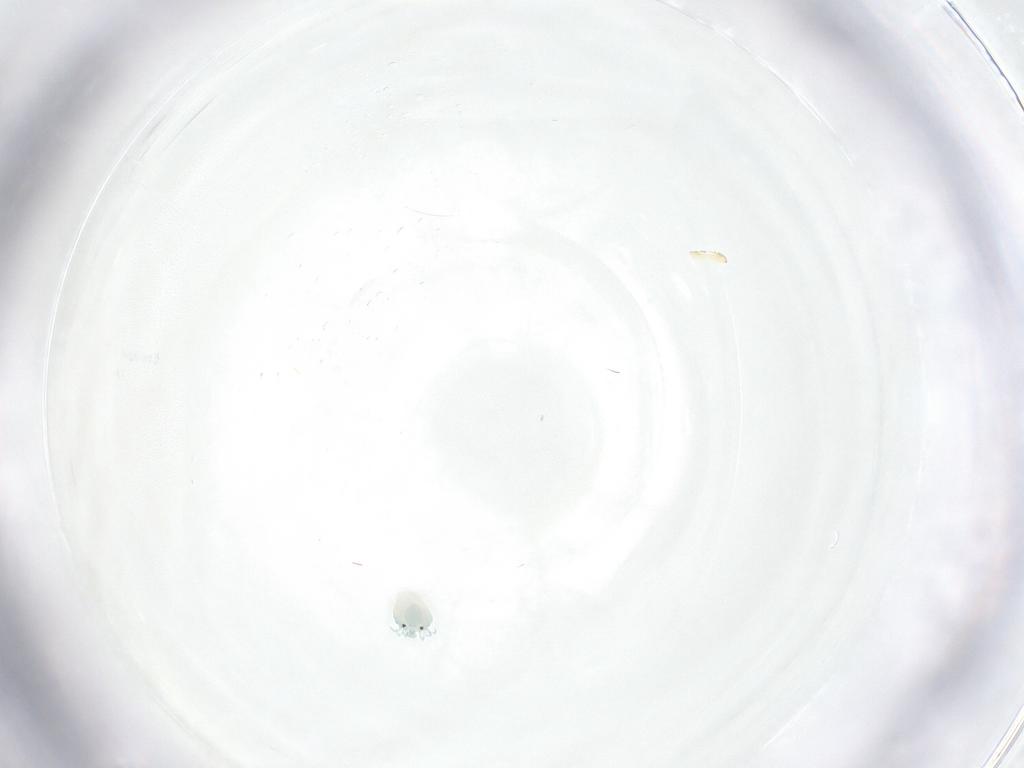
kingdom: Animalia
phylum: Arthropoda
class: Arachnida
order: Trombidiformes
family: Arrenuridae
